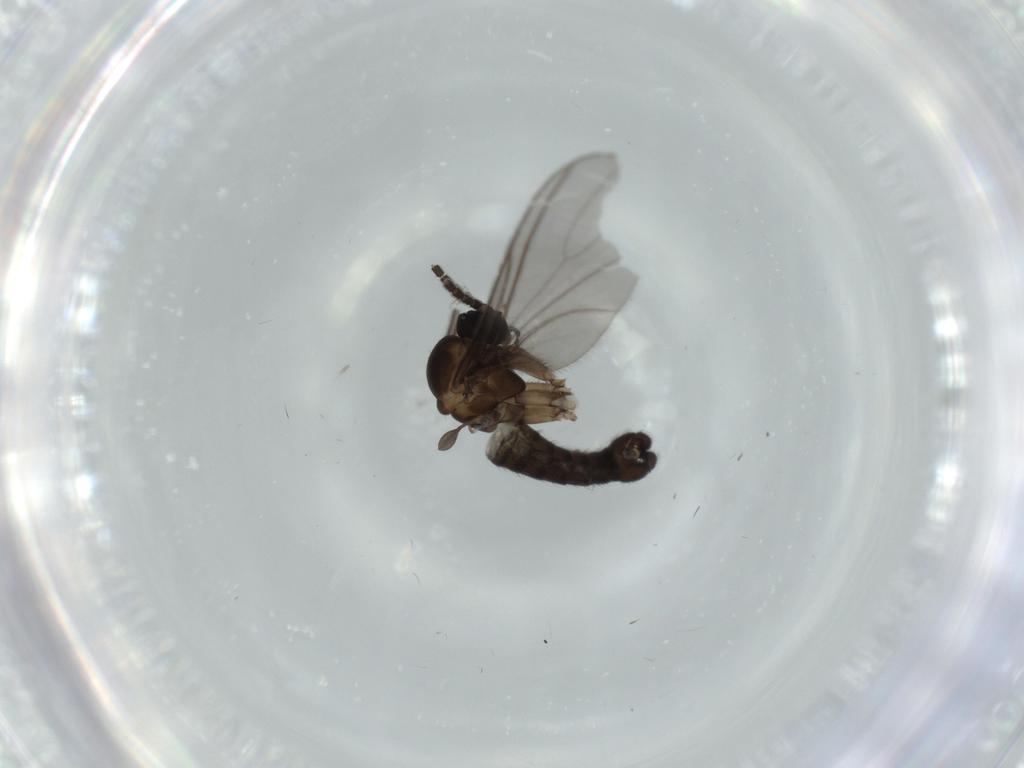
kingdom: Animalia
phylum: Arthropoda
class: Insecta
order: Diptera
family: Sciaridae
